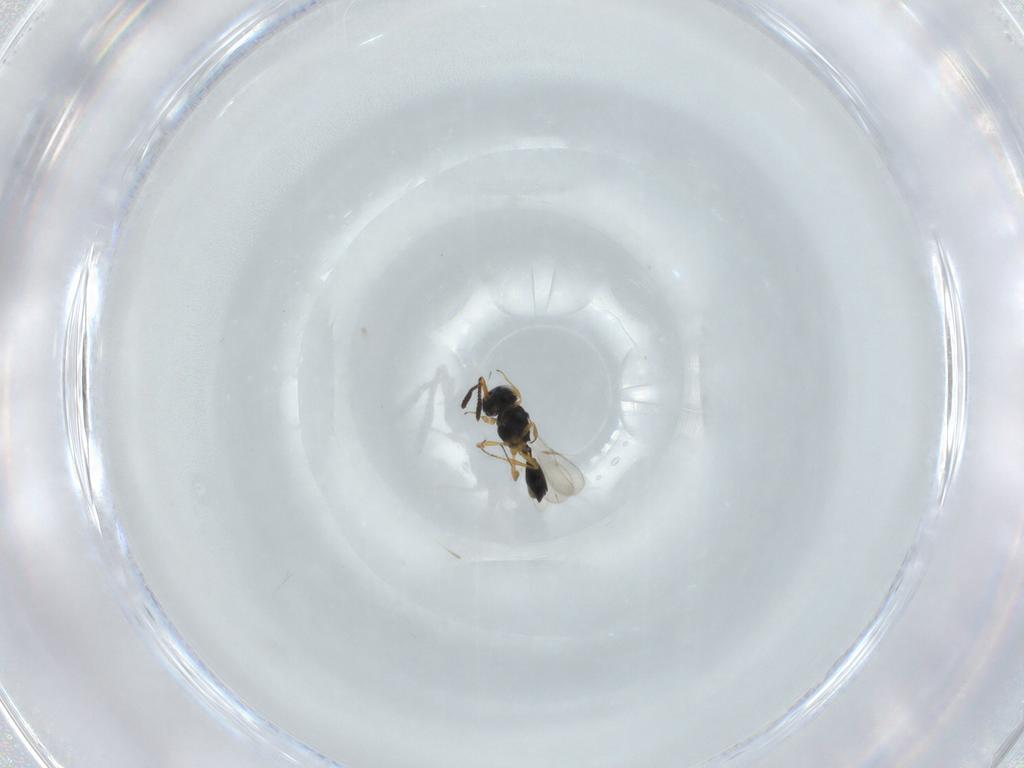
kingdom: Animalia
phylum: Arthropoda
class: Insecta
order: Hymenoptera
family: Scelionidae
